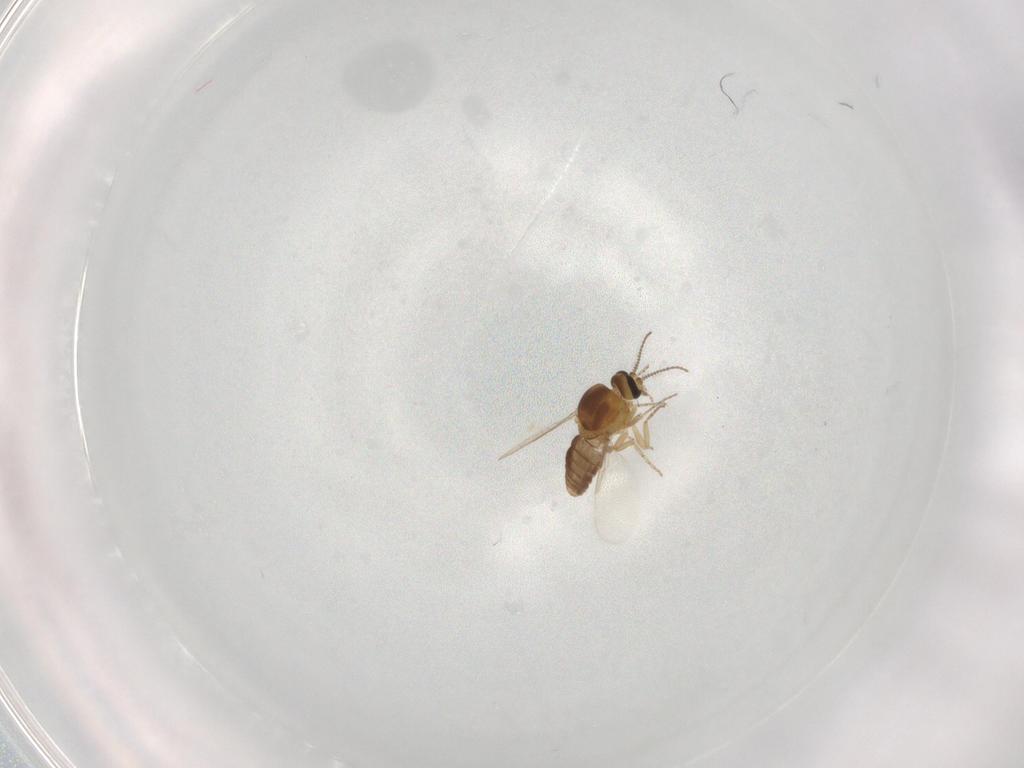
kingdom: Animalia
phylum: Arthropoda
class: Insecta
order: Diptera
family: Ceratopogonidae
